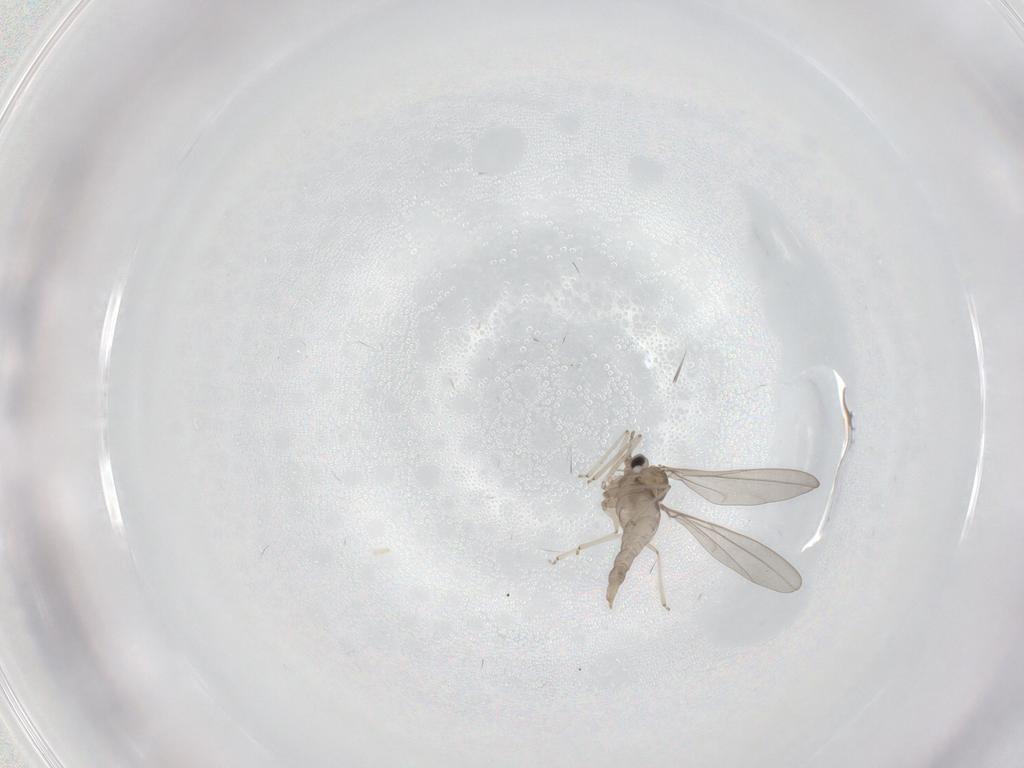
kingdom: Animalia
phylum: Arthropoda
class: Insecta
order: Diptera
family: Cecidomyiidae
